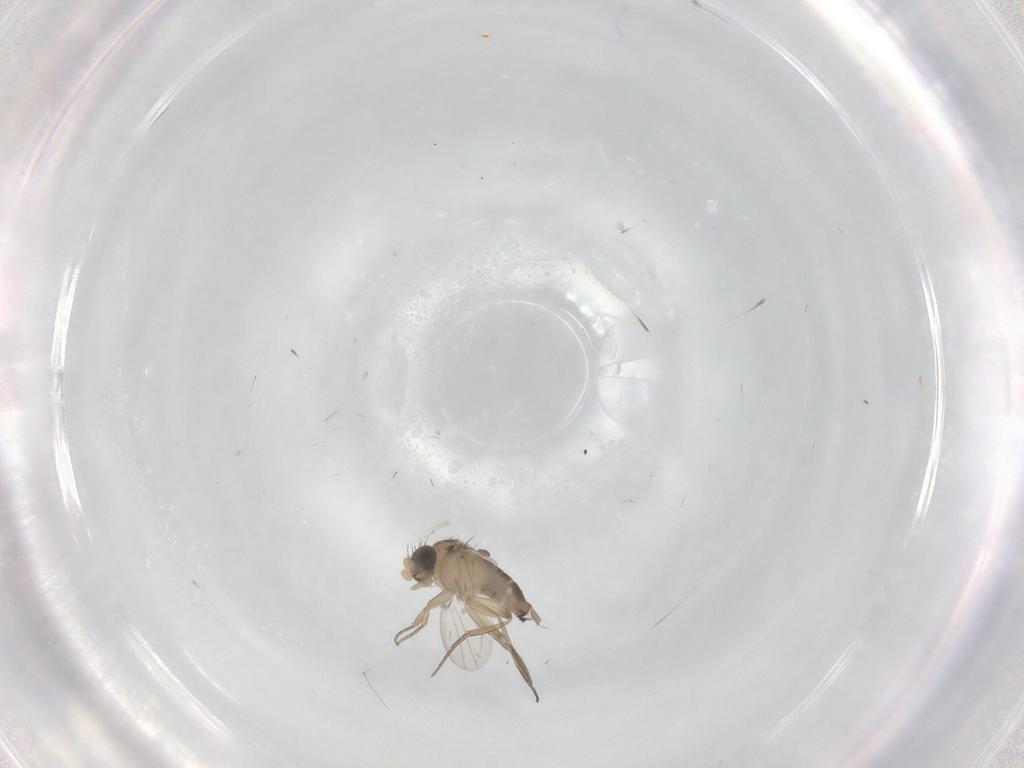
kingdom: Animalia
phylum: Arthropoda
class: Insecta
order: Diptera
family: Phoridae
